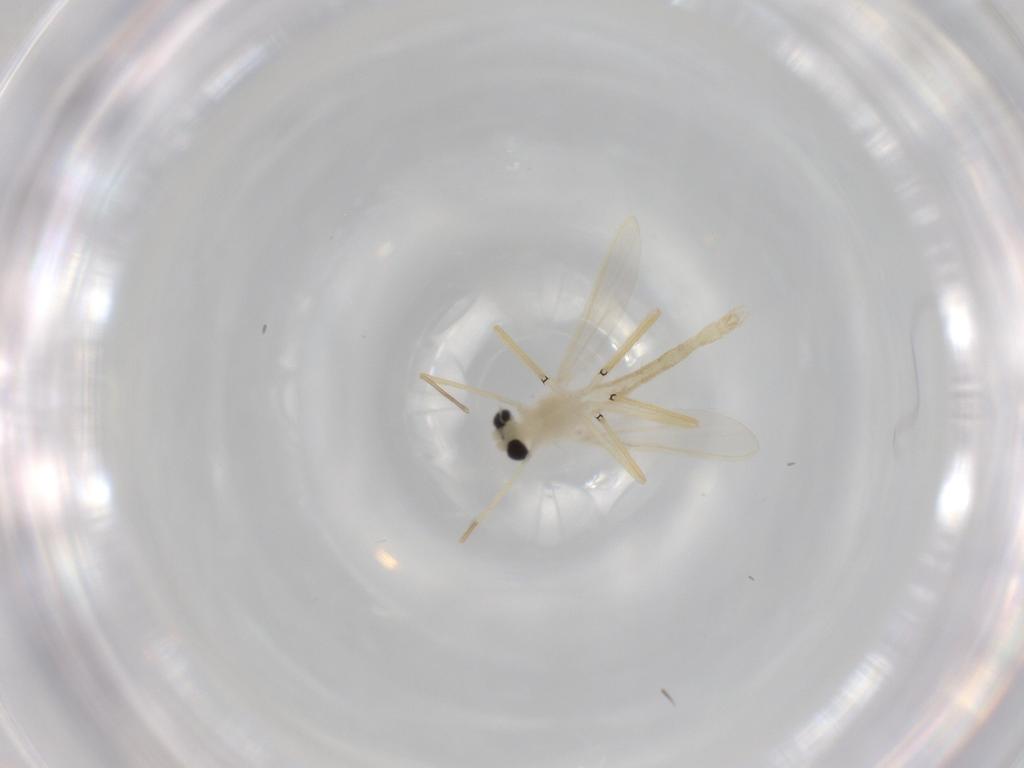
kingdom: Animalia
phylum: Arthropoda
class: Insecta
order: Diptera
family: Chironomidae
